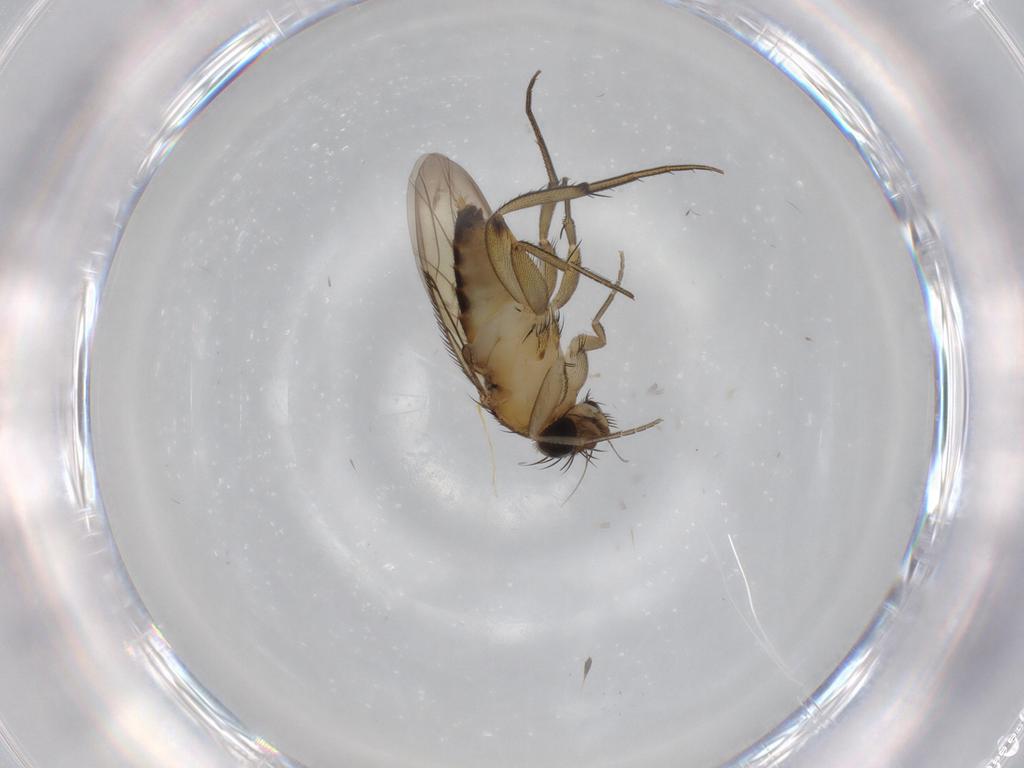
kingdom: Animalia
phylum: Arthropoda
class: Insecta
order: Diptera
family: Phoridae
